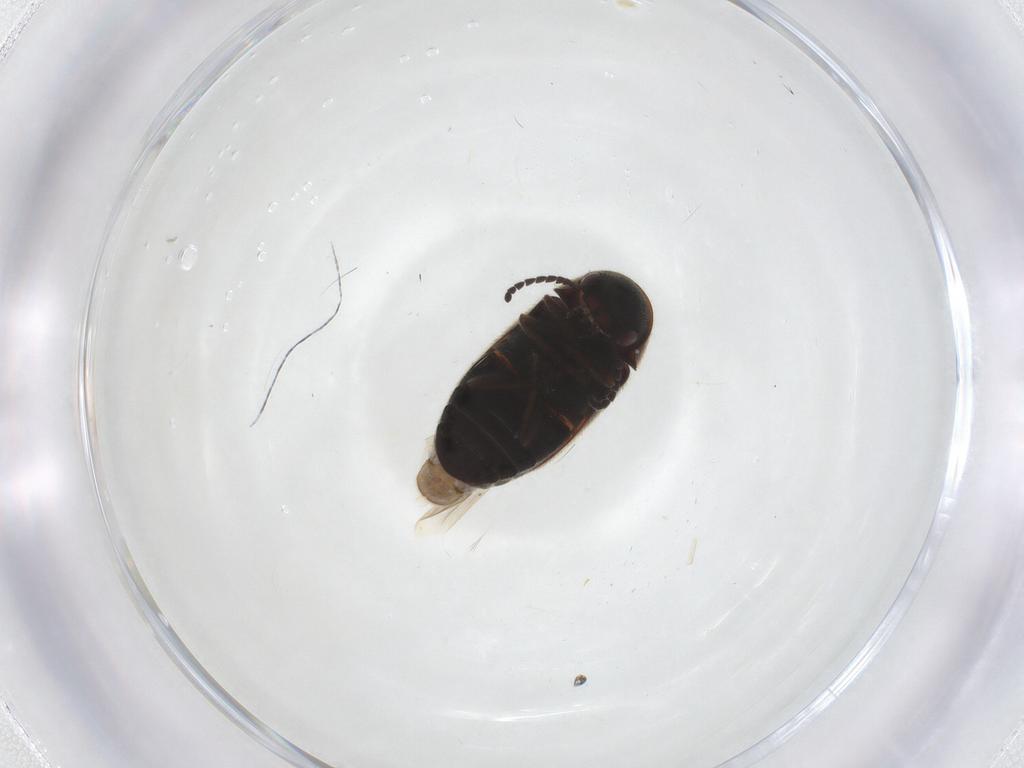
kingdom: Animalia
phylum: Arthropoda
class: Insecta
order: Coleoptera
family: Ptinidae
